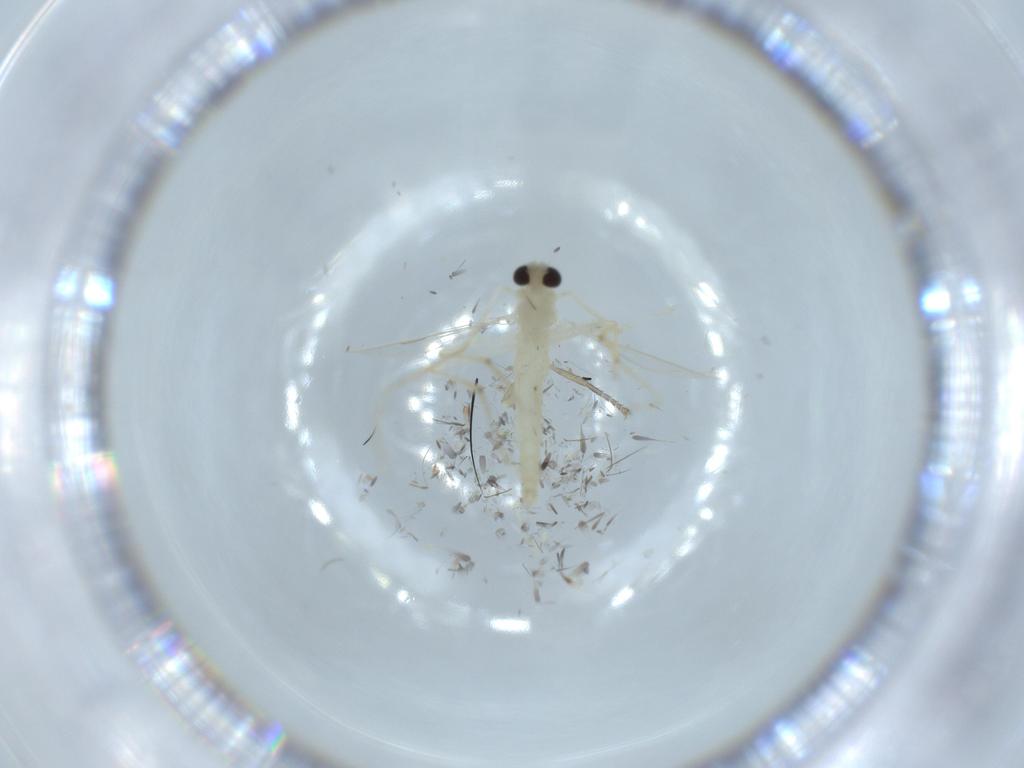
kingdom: Animalia
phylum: Arthropoda
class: Insecta
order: Diptera
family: Chironomidae
